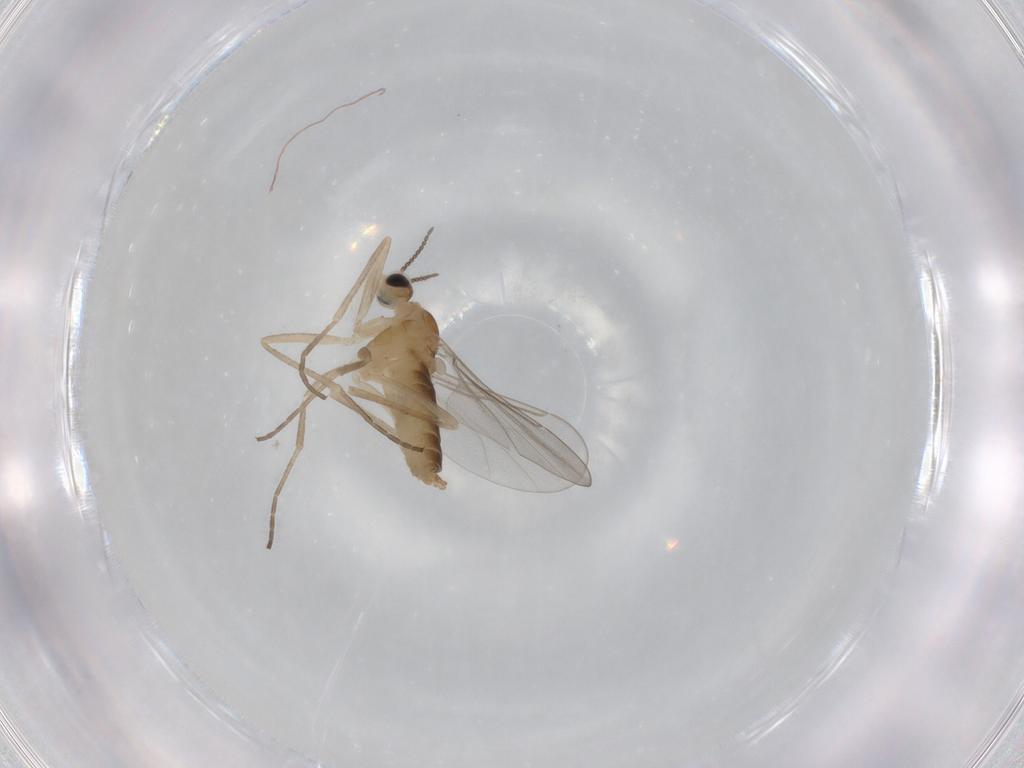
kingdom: Animalia
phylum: Arthropoda
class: Insecta
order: Diptera
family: Cecidomyiidae
